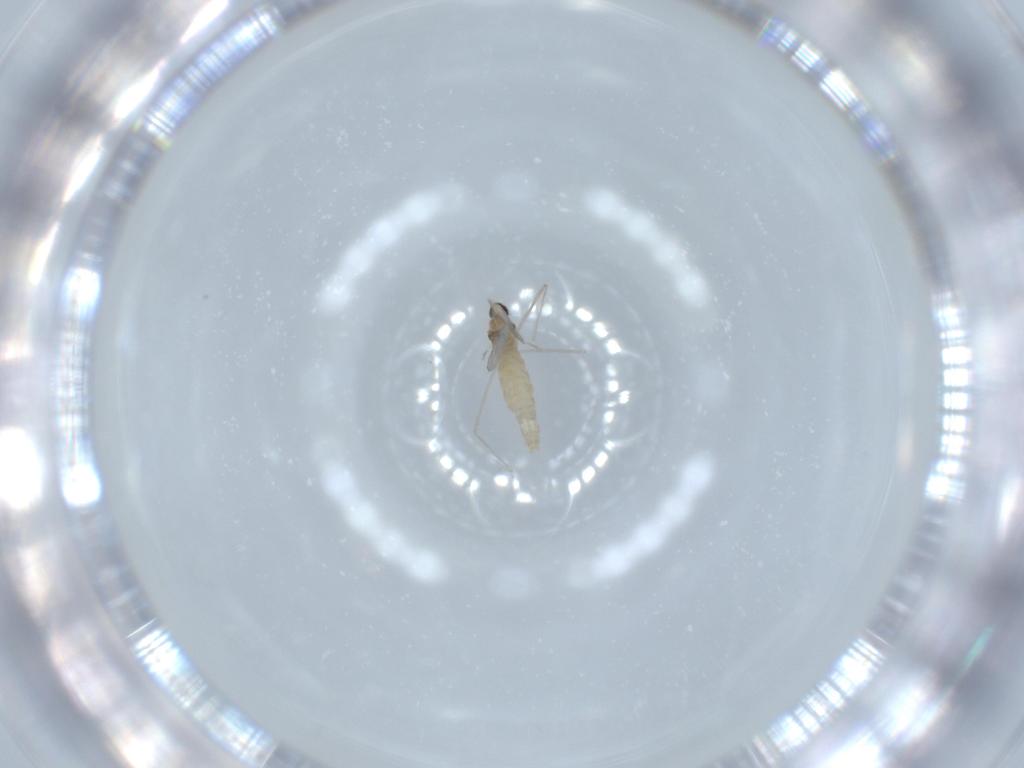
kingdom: Animalia
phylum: Arthropoda
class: Insecta
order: Diptera
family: Cecidomyiidae
